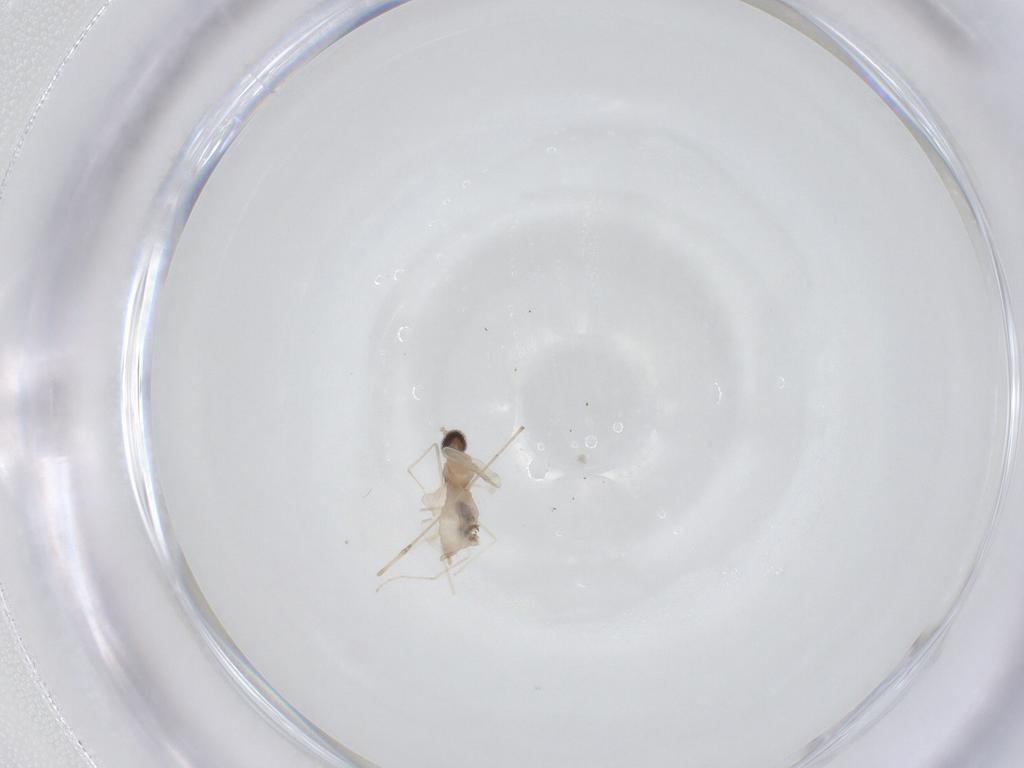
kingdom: Animalia
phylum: Arthropoda
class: Insecta
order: Diptera
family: Cecidomyiidae
